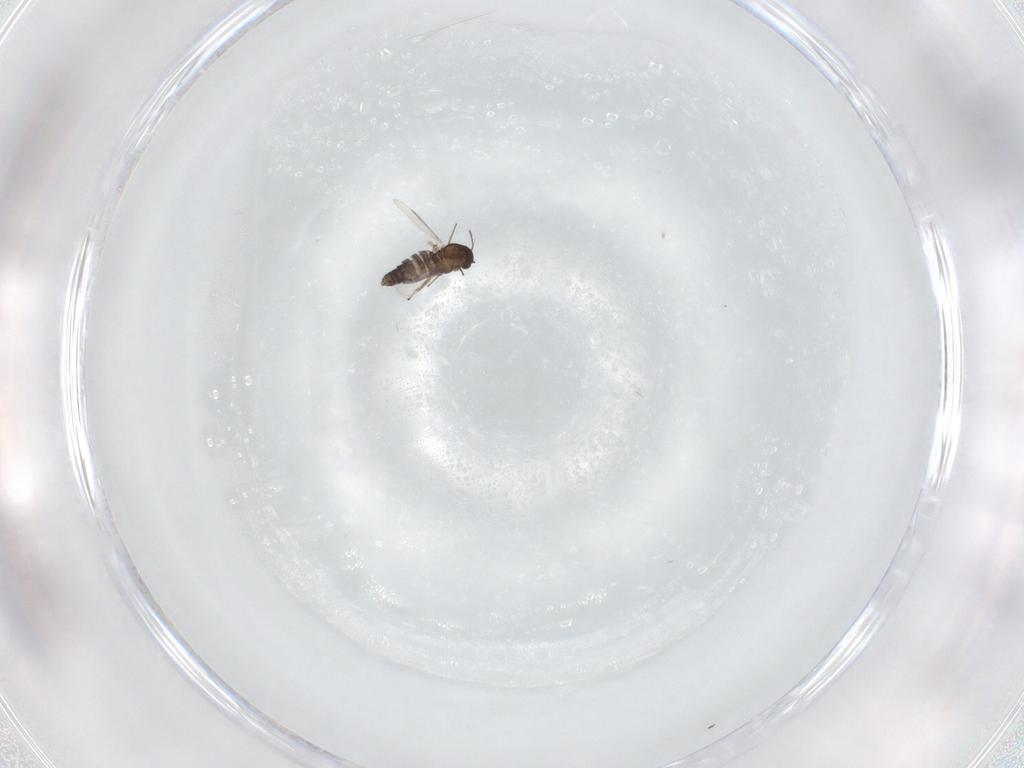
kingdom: Animalia
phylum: Arthropoda
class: Insecta
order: Diptera
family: Chironomidae
